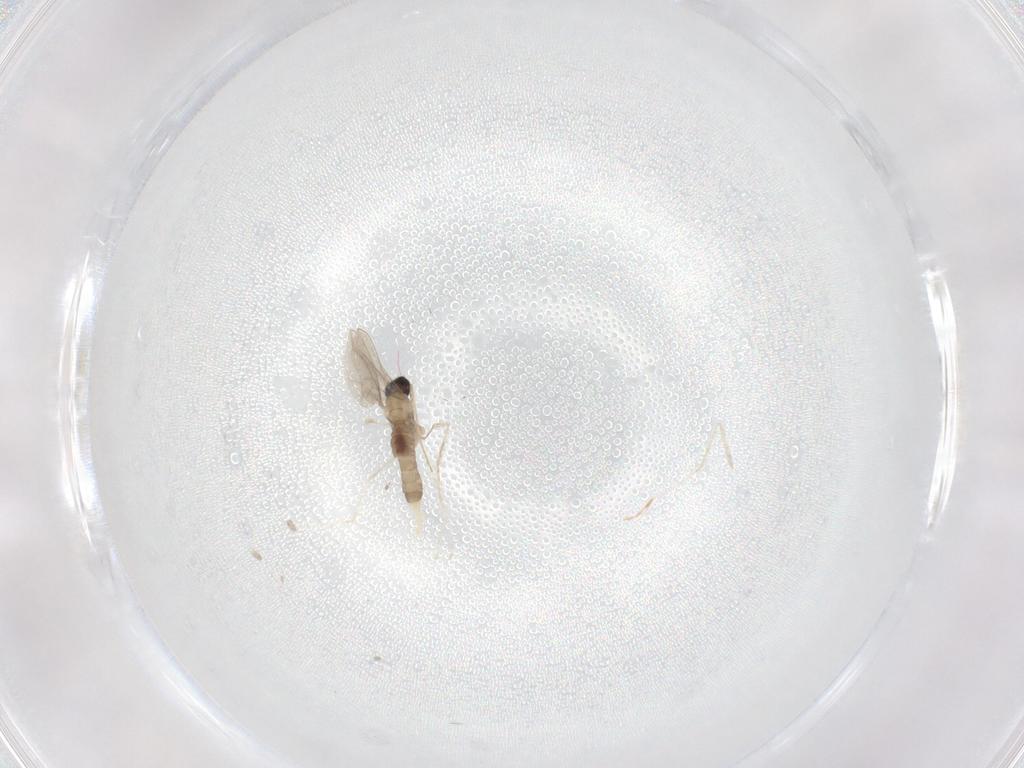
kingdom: Animalia
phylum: Arthropoda
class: Insecta
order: Diptera
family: Cecidomyiidae
